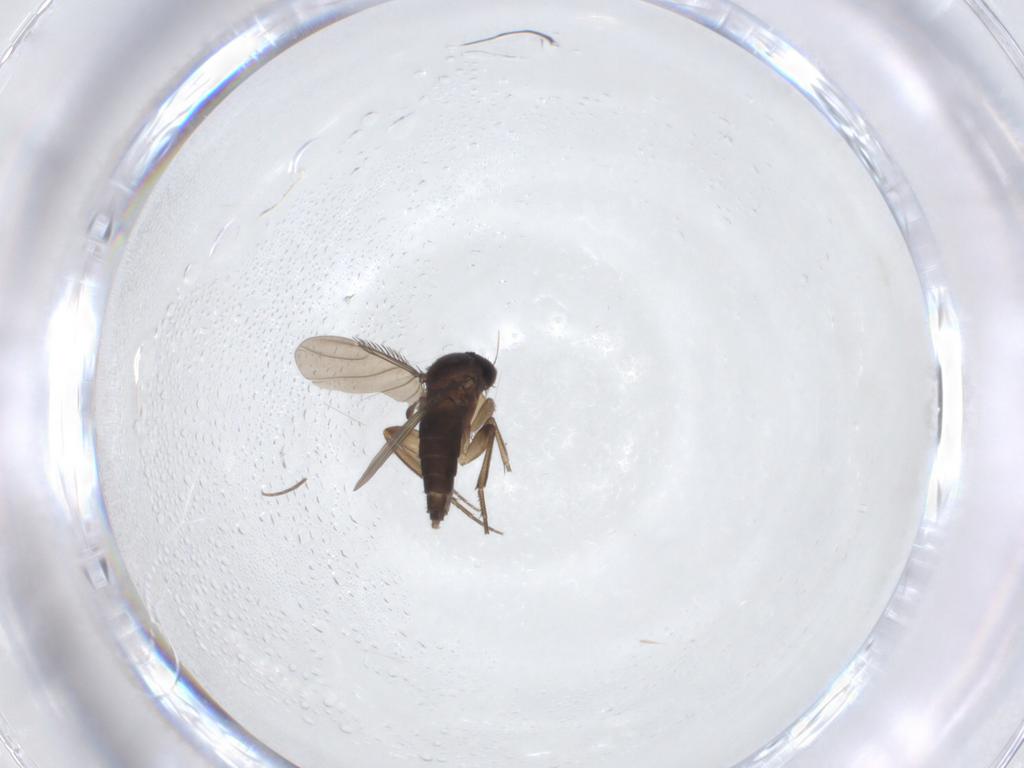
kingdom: Animalia
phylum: Arthropoda
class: Insecta
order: Diptera
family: Phoridae
